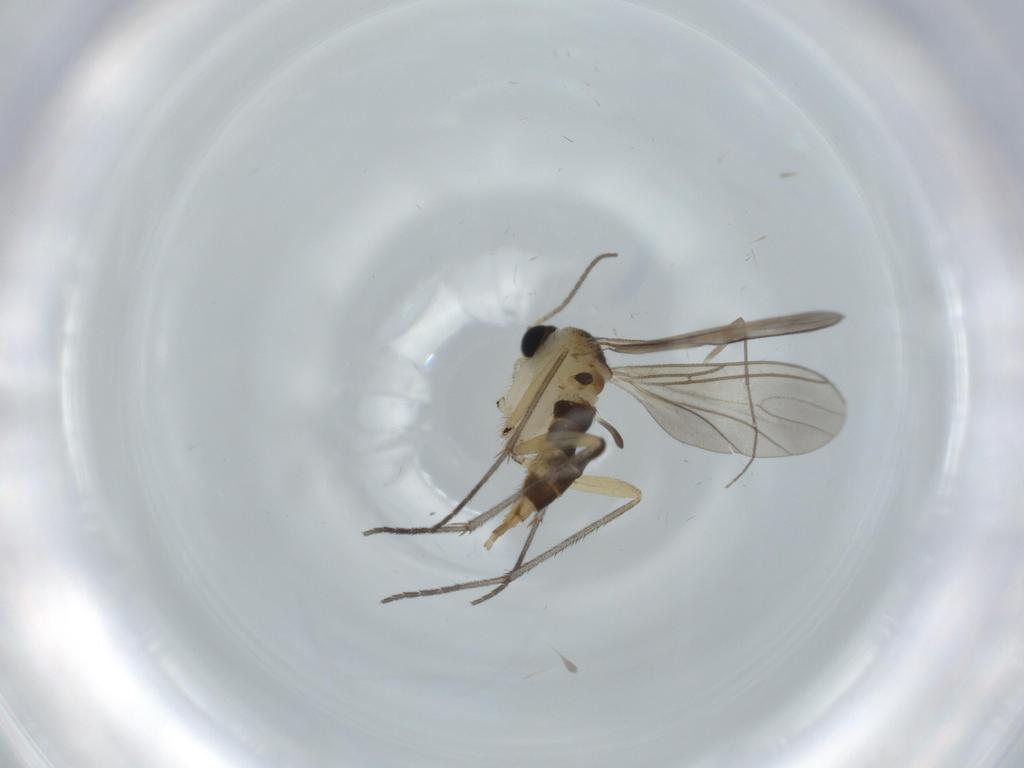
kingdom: Animalia
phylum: Arthropoda
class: Insecta
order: Diptera
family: Sciaridae
